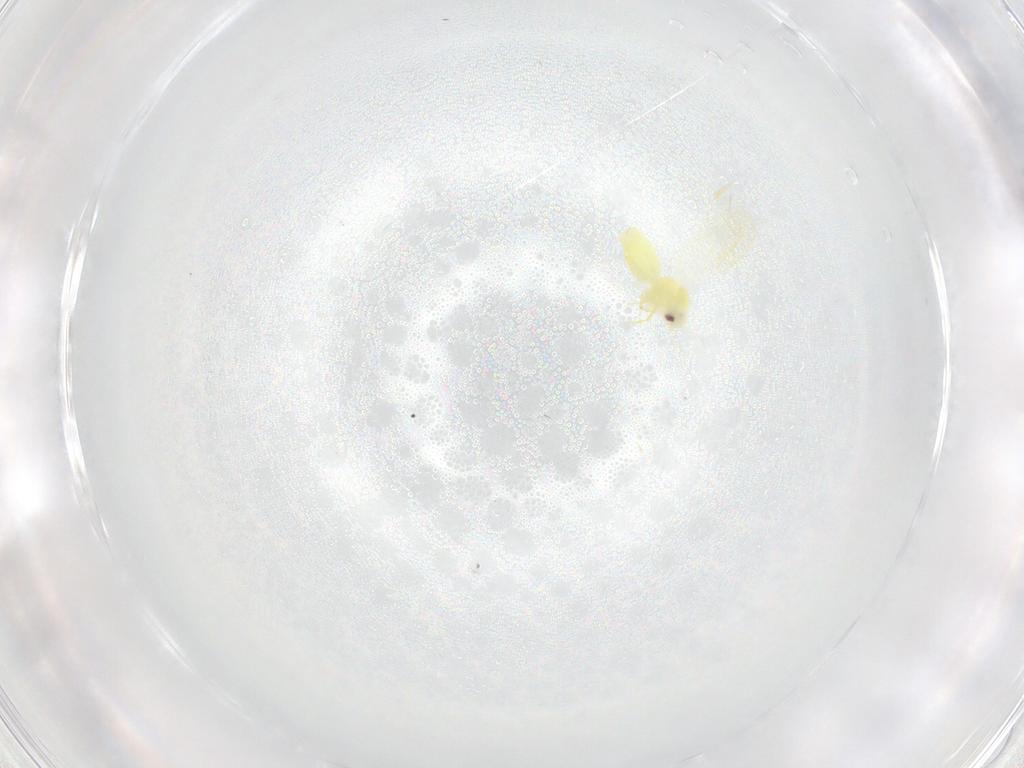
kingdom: Animalia
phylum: Arthropoda
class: Insecta
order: Hemiptera
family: Aleyrodidae
